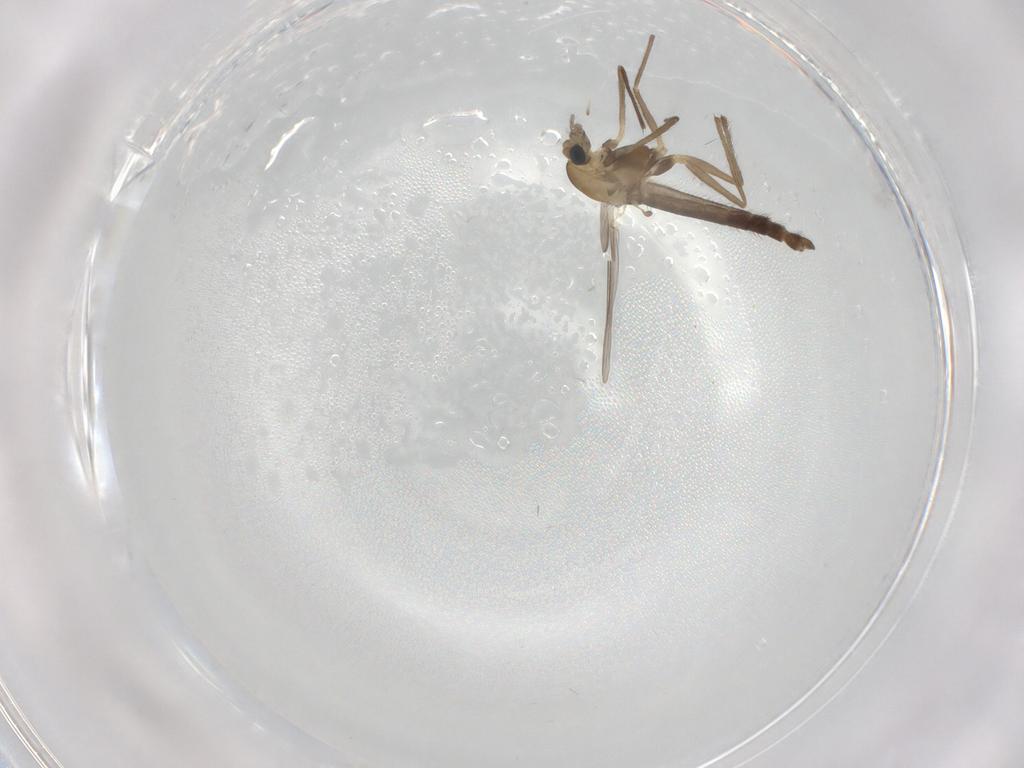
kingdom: Animalia
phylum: Arthropoda
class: Insecta
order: Diptera
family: Chironomidae
